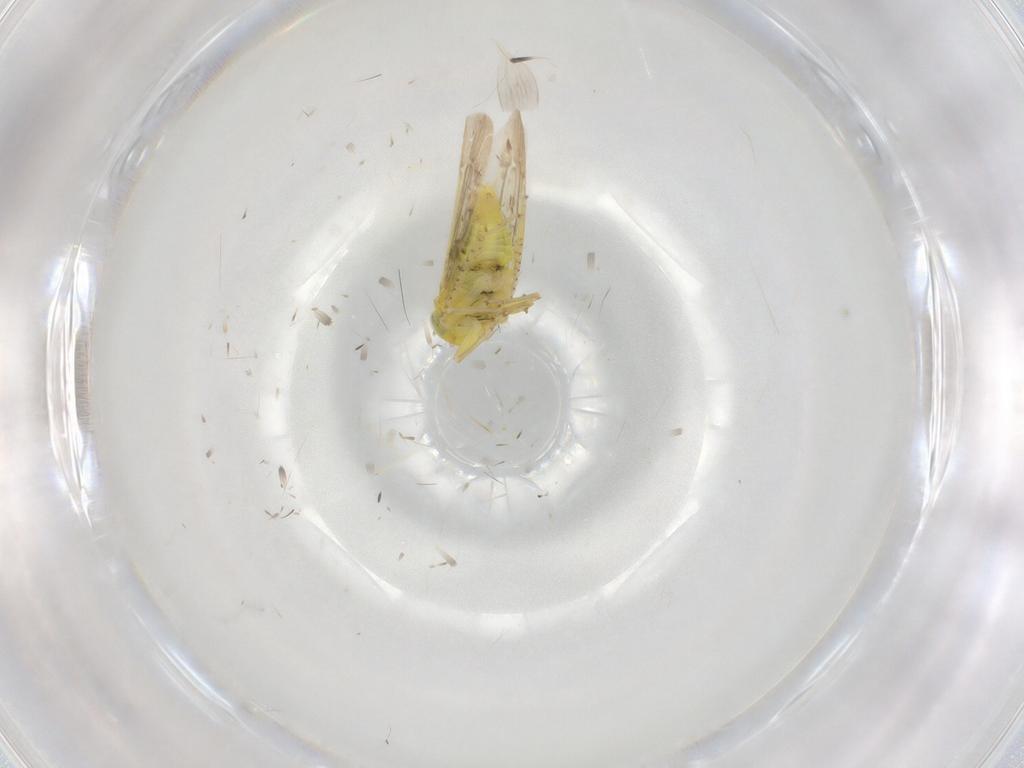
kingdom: Animalia
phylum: Arthropoda
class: Insecta
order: Hemiptera
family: Cicadellidae
